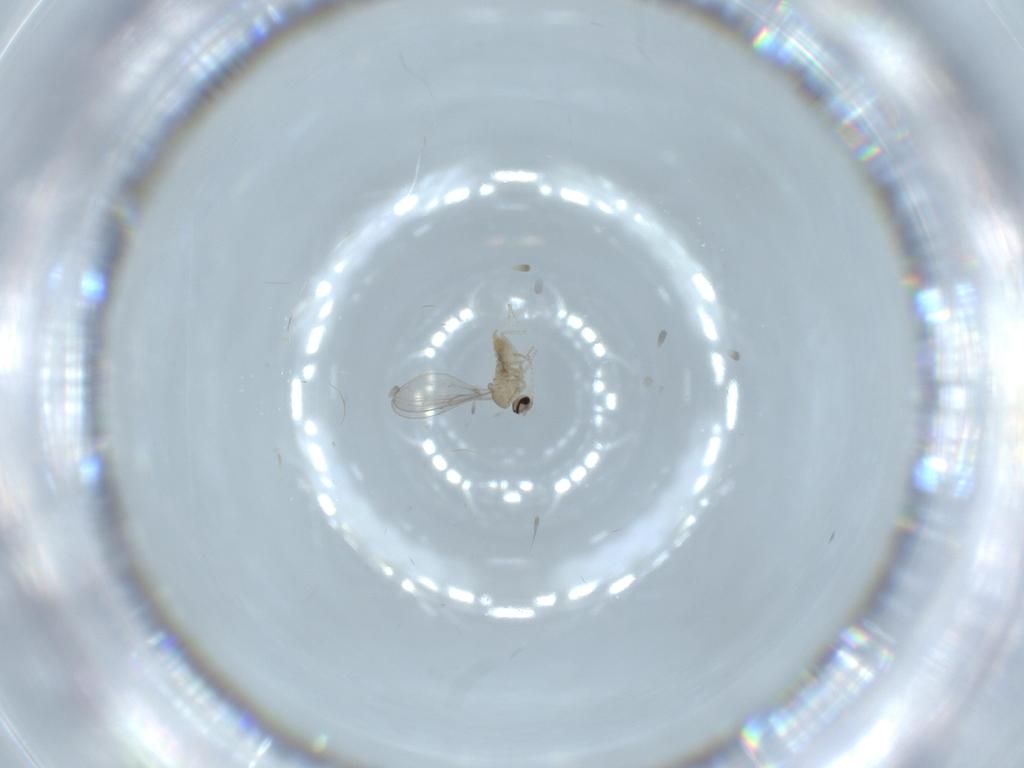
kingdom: Animalia
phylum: Arthropoda
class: Insecta
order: Diptera
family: Cecidomyiidae
